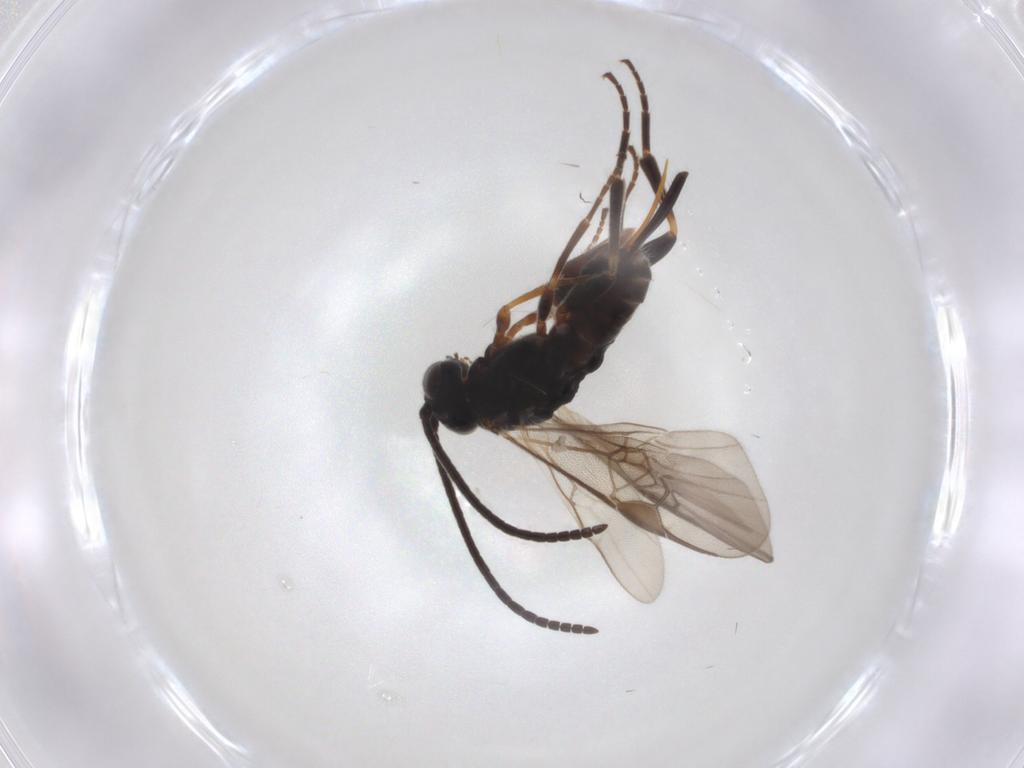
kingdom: Animalia
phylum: Arthropoda
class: Insecta
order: Hymenoptera
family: Braconidae
